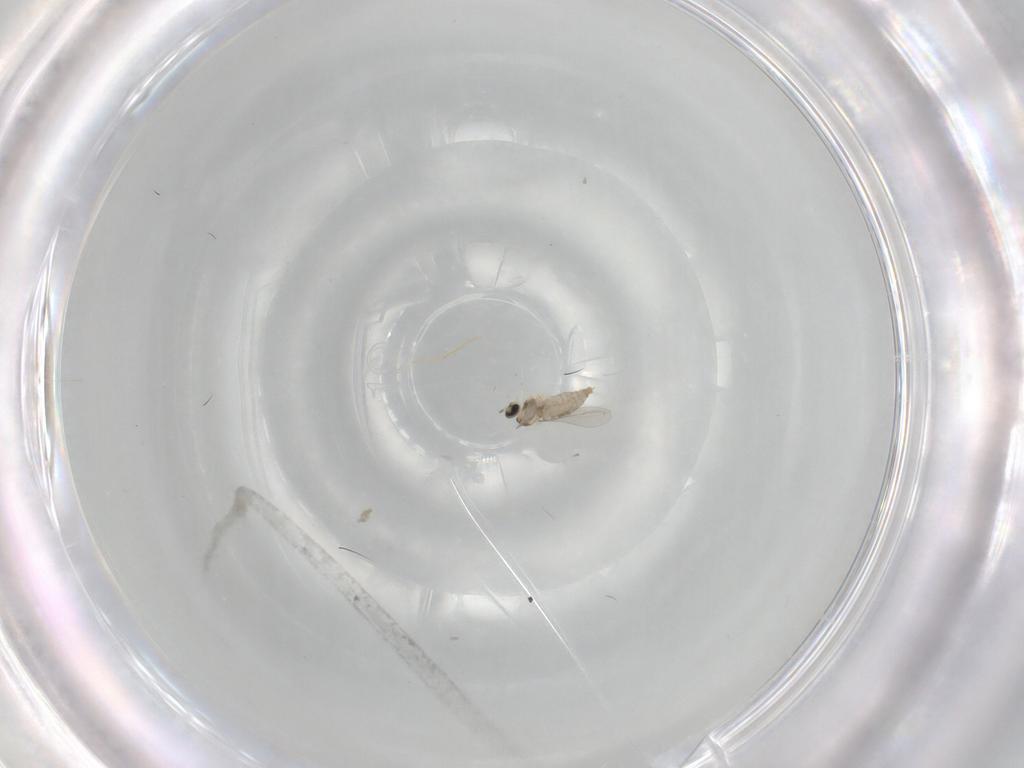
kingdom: Animalia
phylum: Arthropoda
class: Insecta
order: Diptera
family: Cecidomyiidae
